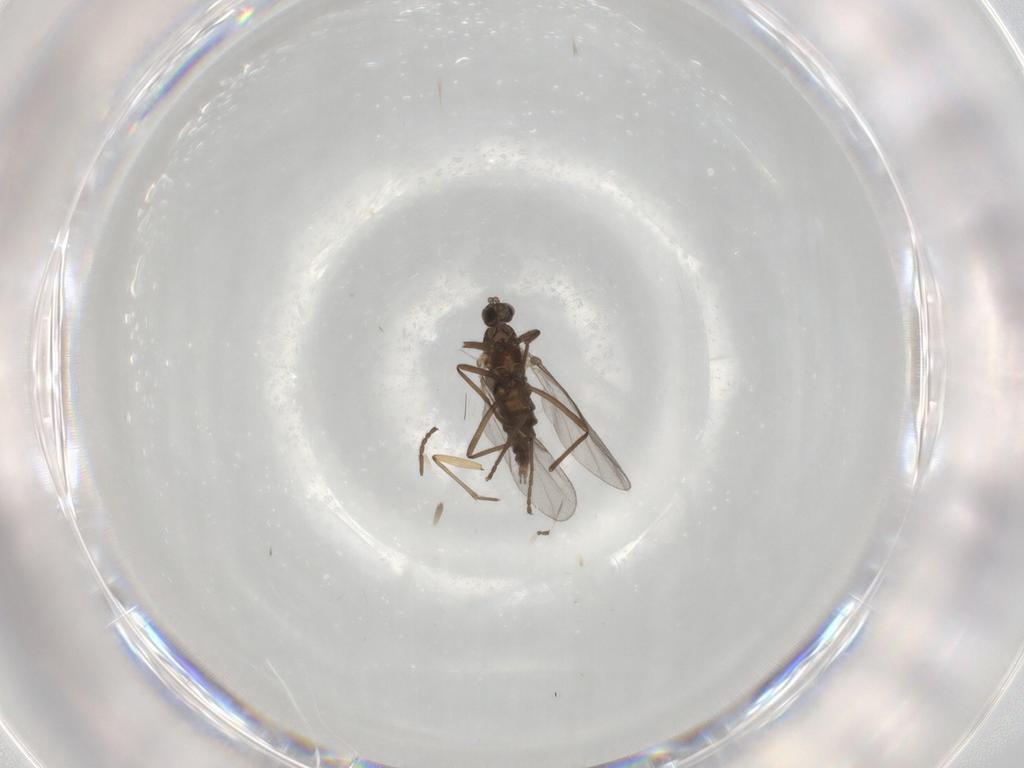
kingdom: Animalia
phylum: Arthropoda
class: Insecta
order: Diptera
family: Cecidomyiidae
